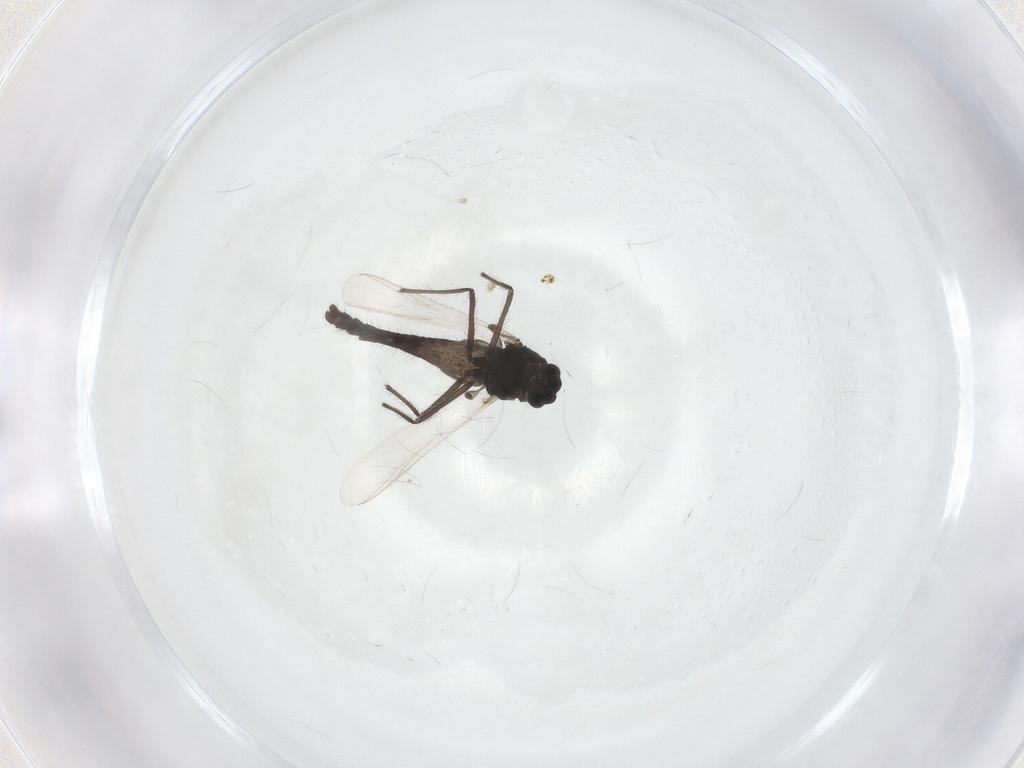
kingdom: Animalia
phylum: Arthropoda
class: Insecta
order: Diptera
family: Chironomidae
